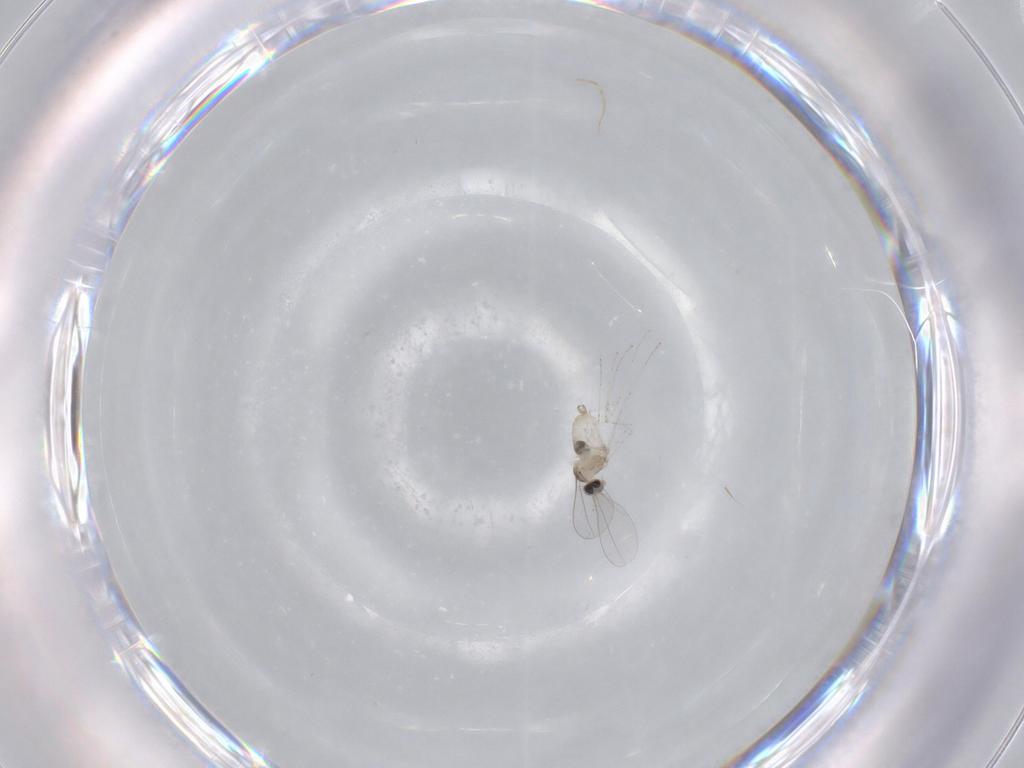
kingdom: Animalia
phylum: Arthropoda
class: Insecta
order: Diptera
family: Cecidomyiidae
